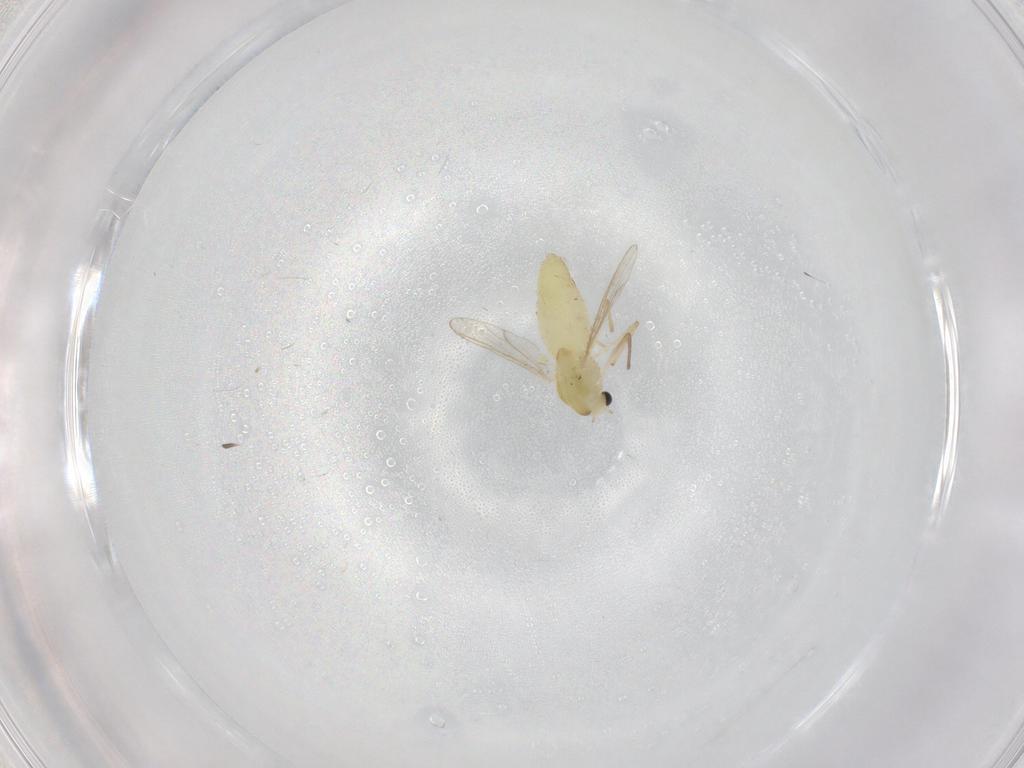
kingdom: Animalia
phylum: Arthropoda
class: Insecta
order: Diptera
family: Chironomidae
